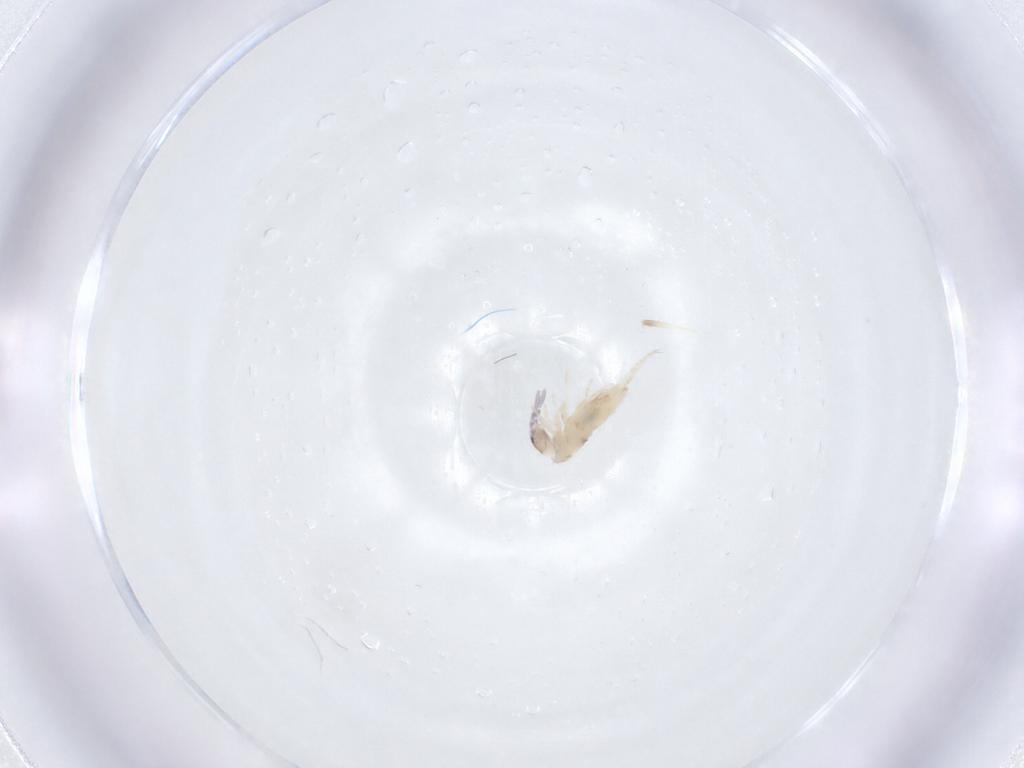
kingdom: Animalia
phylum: Arthropoda
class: Collembola
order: Entomobryomorpha
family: Entomobryidae
